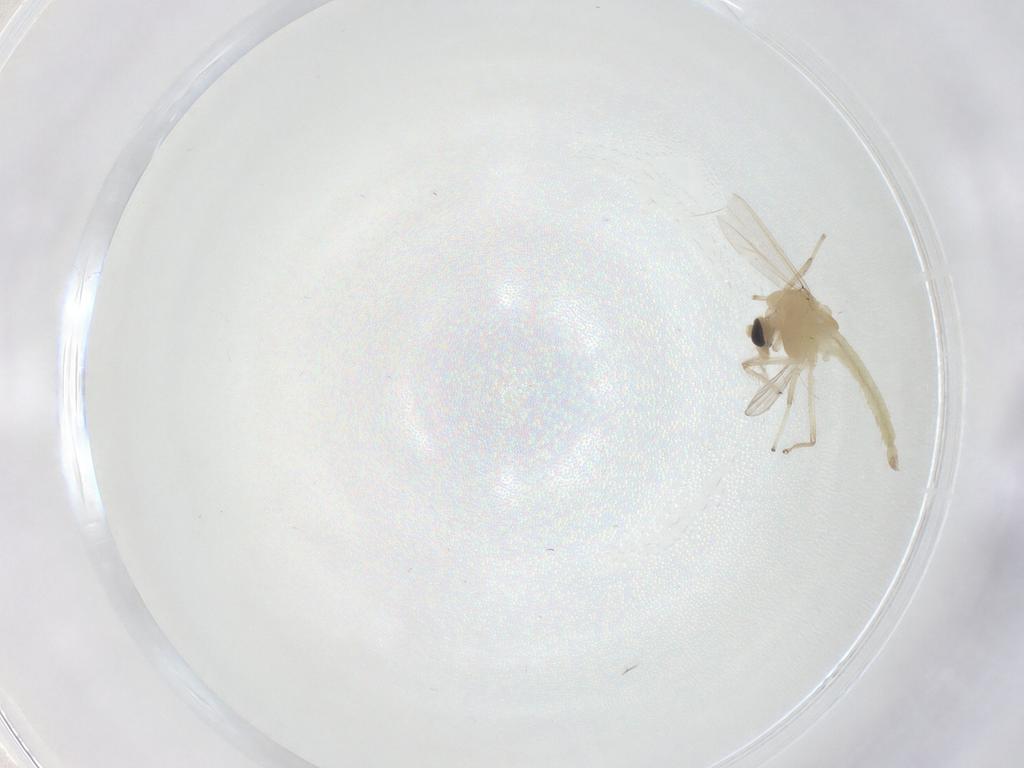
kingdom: Animalia
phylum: Arthropoda
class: Insecta
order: Diptera
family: Chironomidae
